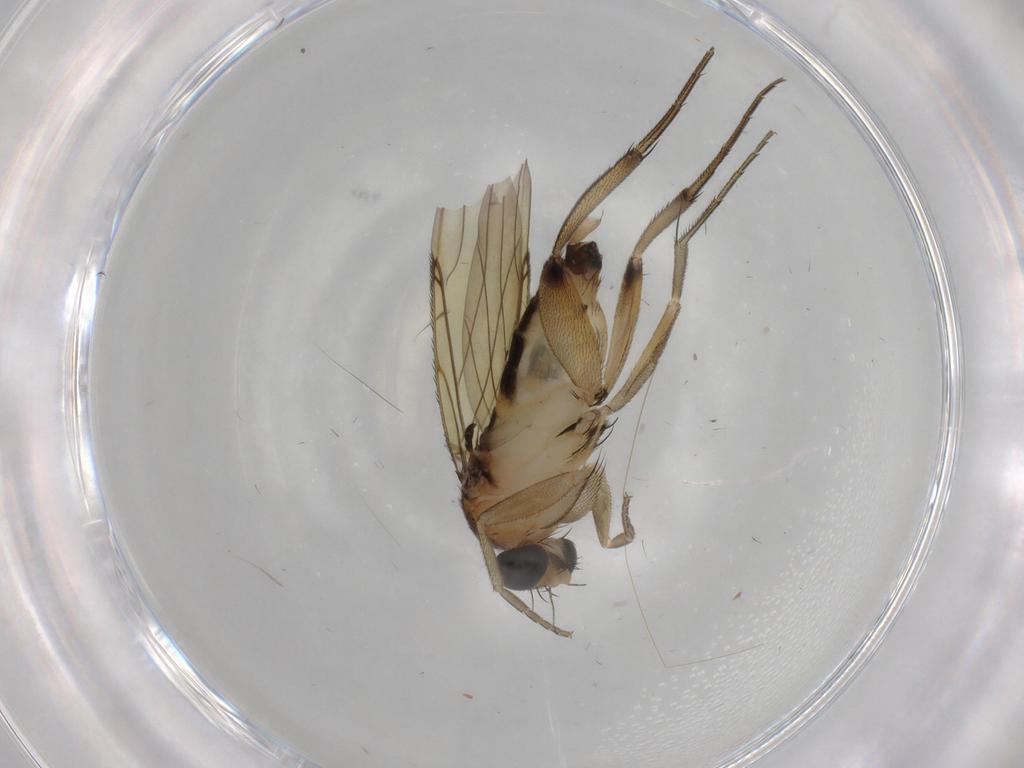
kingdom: Animalia
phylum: Arthropoda
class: Insecta
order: Diptera
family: Phoridae
